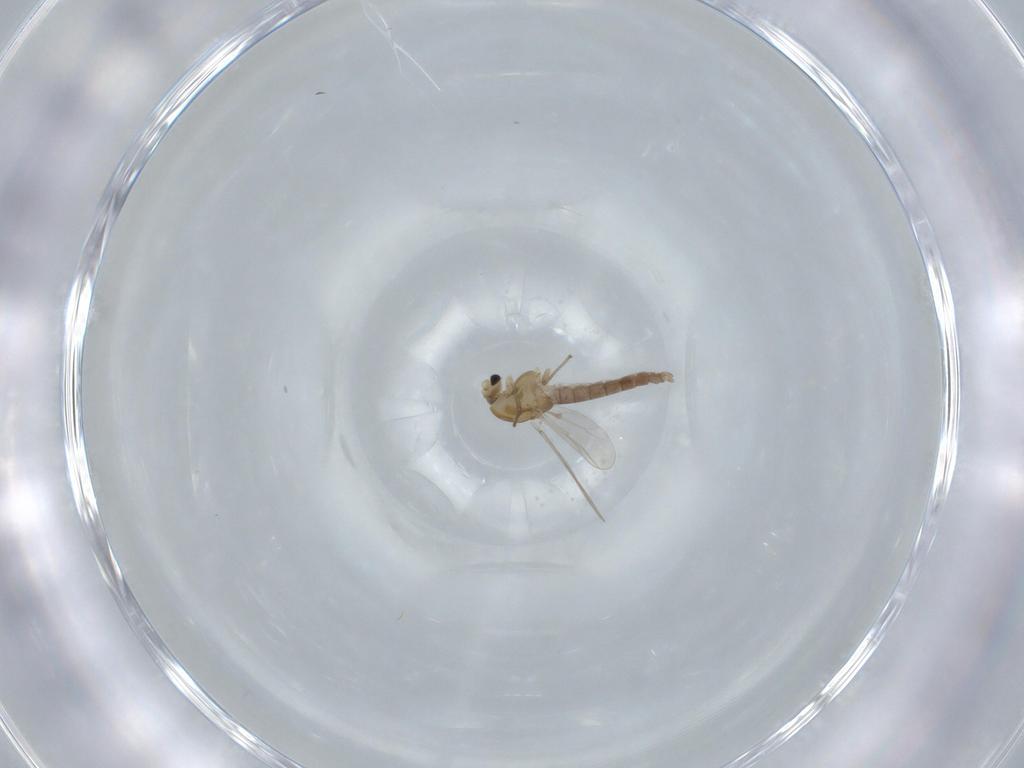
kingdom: Animalia
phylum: Arthropoda
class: Insecta
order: Diptera
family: Chironomidae
